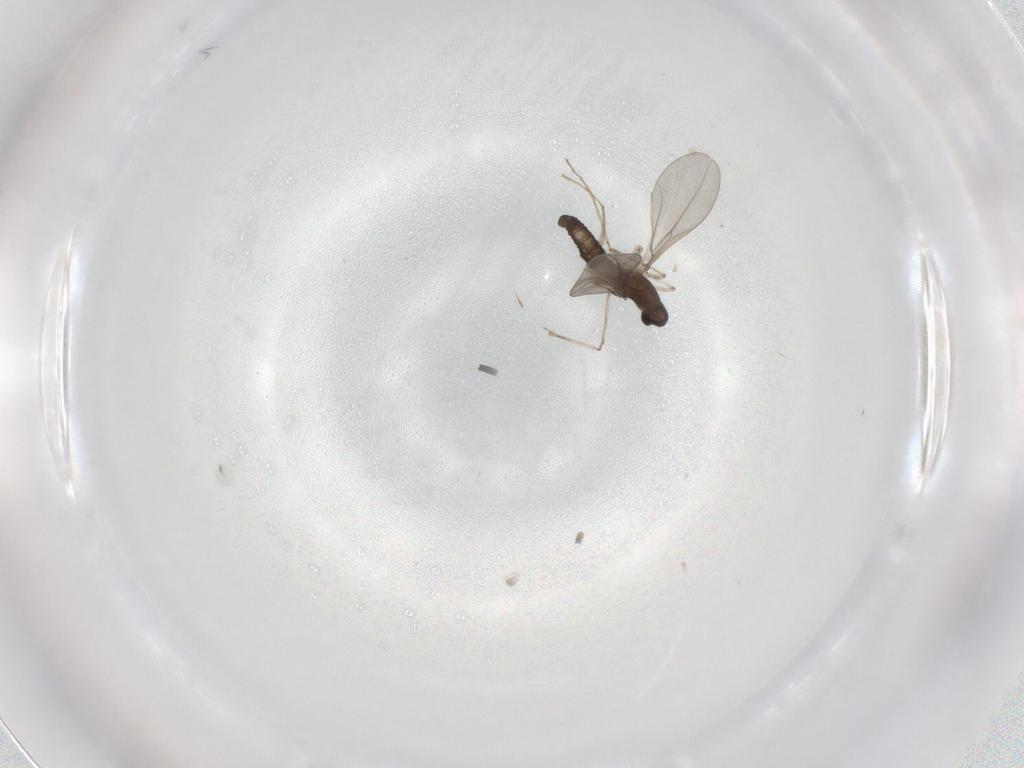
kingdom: Animalia
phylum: Arthropoda
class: Insecta
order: Diptera
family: Cecidomyiidae
